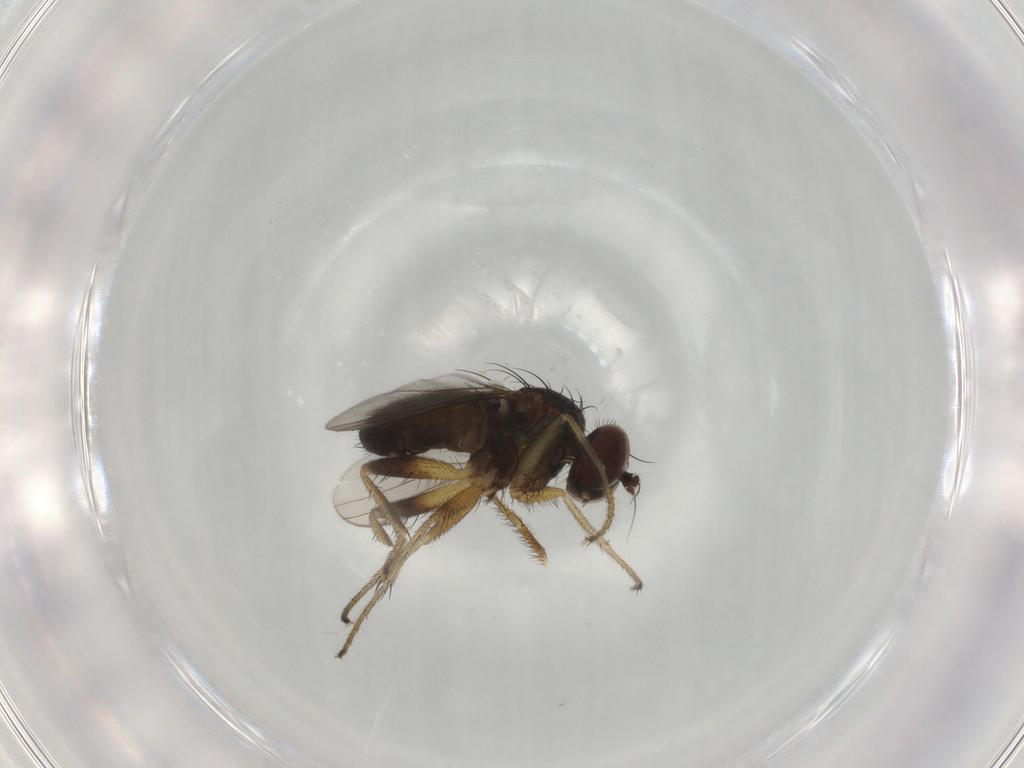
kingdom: Animalia
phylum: Arthropoda
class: Insecta
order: Diptera
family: Dolichopodidae
